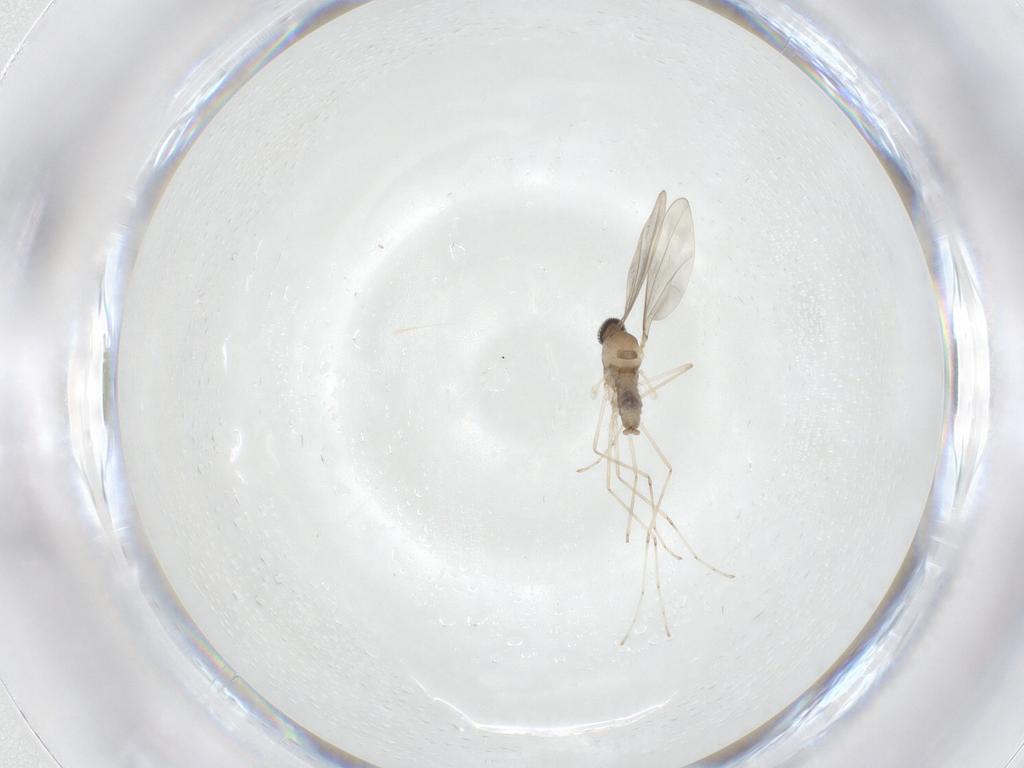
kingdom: Animalia
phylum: Arthropoda
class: Insecta
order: Diptera
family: Cecidomyiidae
